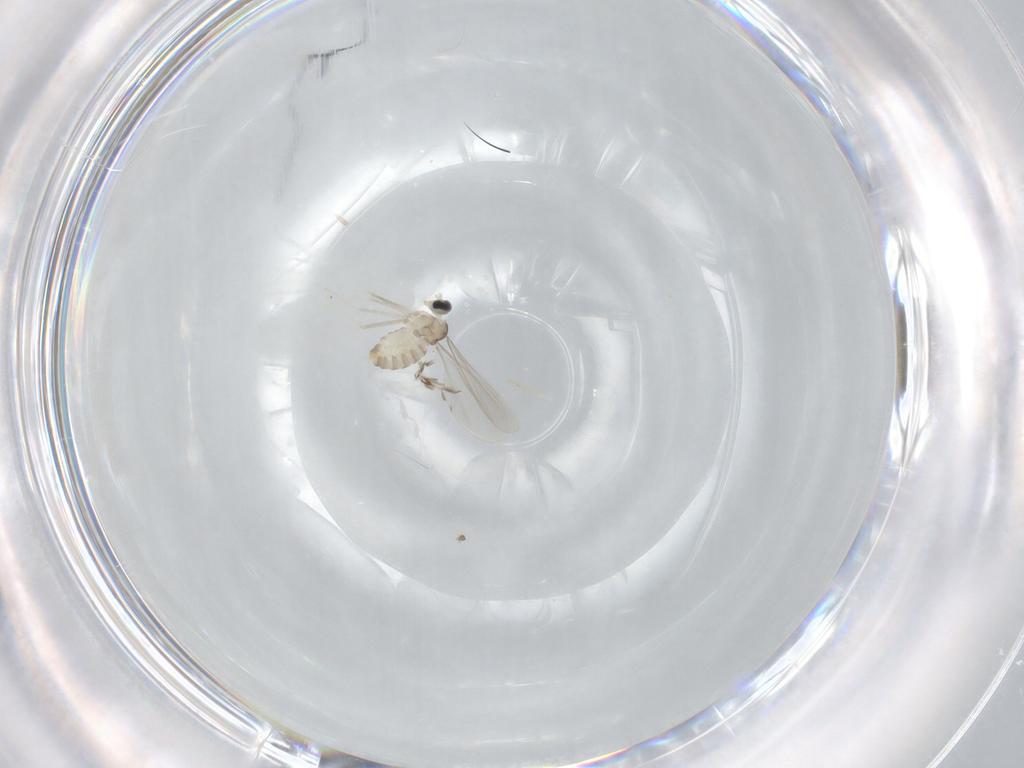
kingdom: Animalia
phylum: Arthropoda
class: Insecta
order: Diptera
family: Cecidomyiidae
